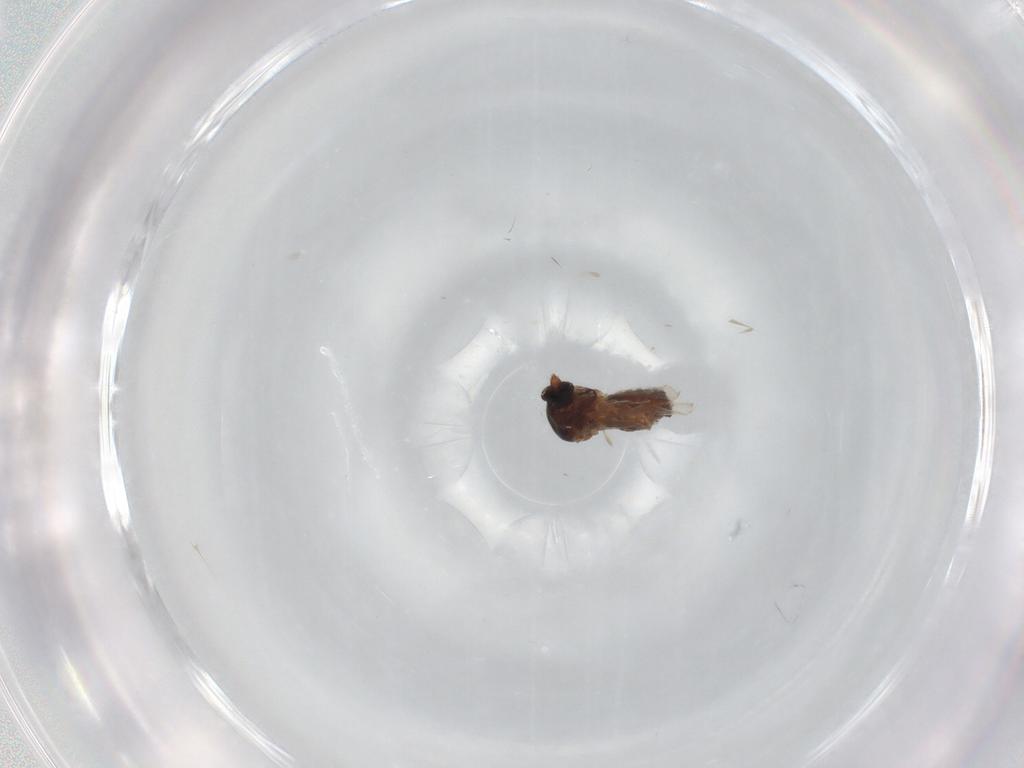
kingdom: Animalia
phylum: Arthropoda
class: Insecta
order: Diptera
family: Ceratopogonidae
